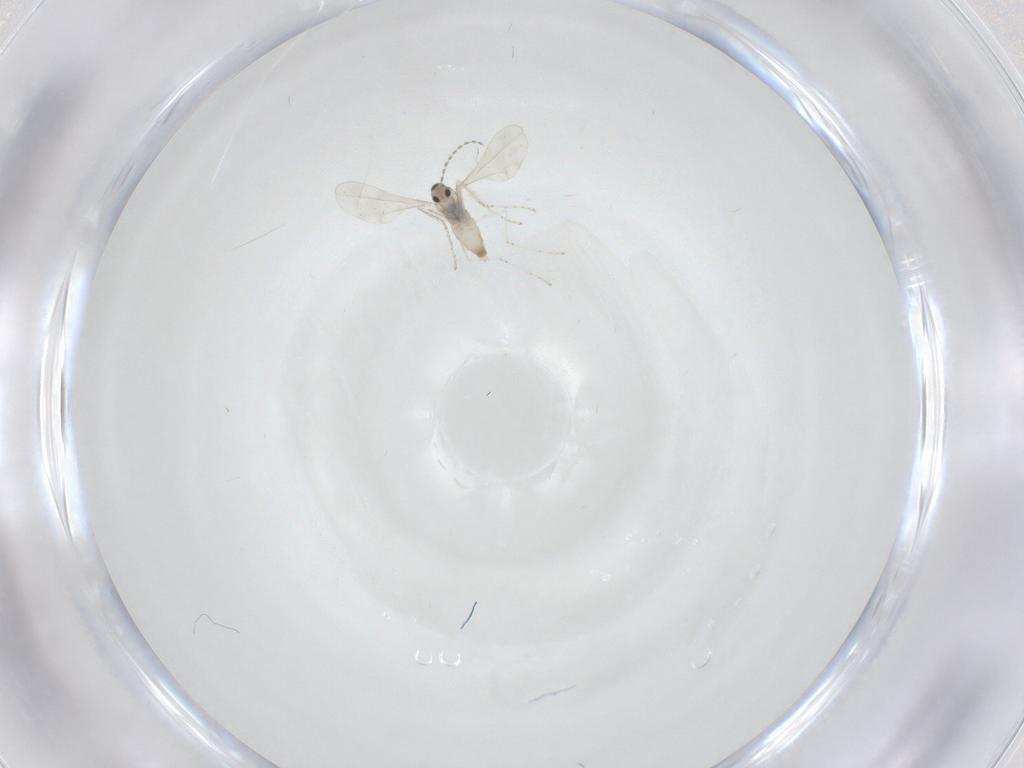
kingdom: Animalia
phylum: Arthropoda
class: Insecta
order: Diptera
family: Cecidomyiidae
